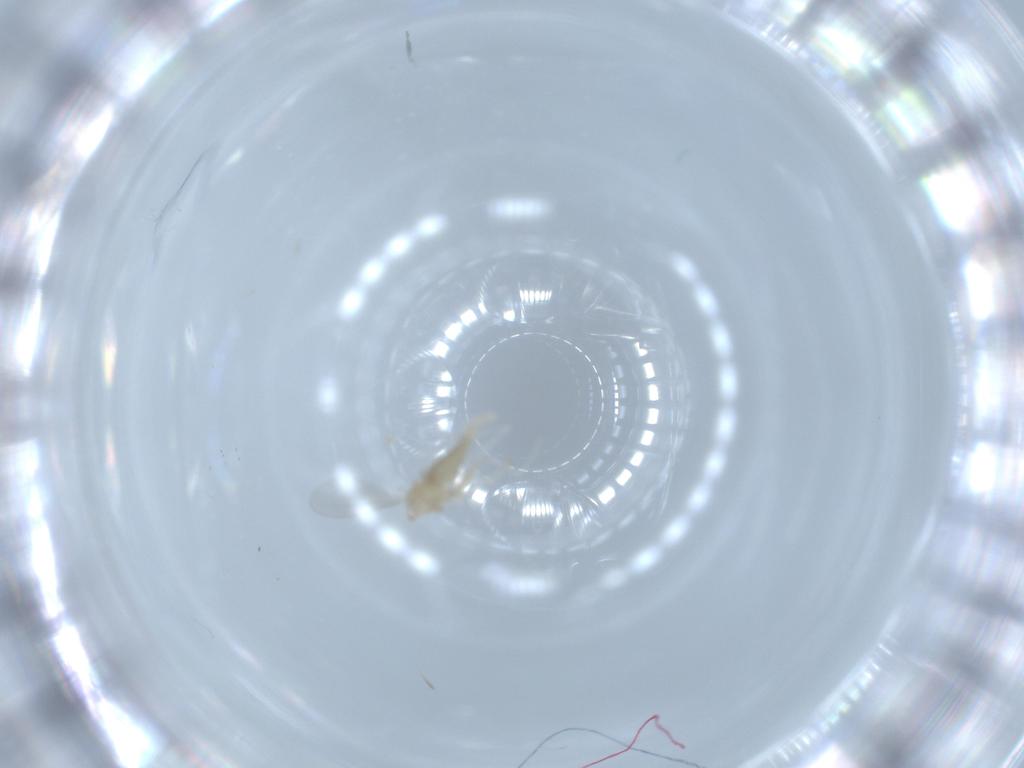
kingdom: Animalia
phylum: Arthropoda
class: Insecta
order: Diptera
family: Cecidomyiidae
